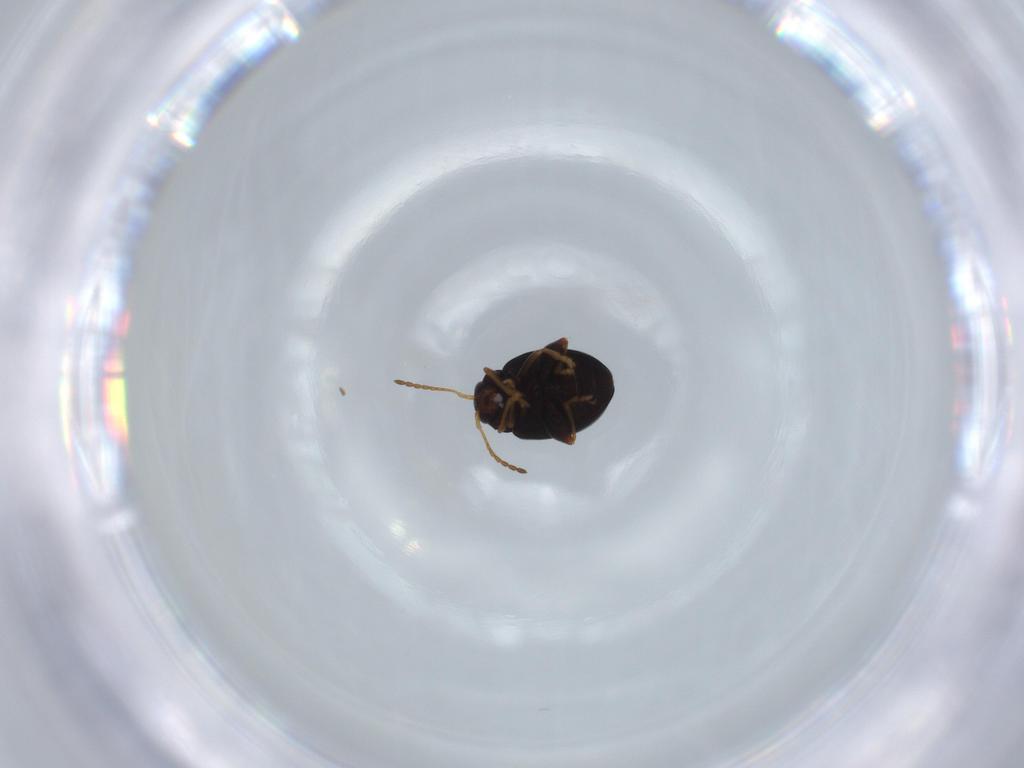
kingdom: Animalia
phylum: Arthropoda
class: Insecta
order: Coleoptera
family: Chrysomelidae
